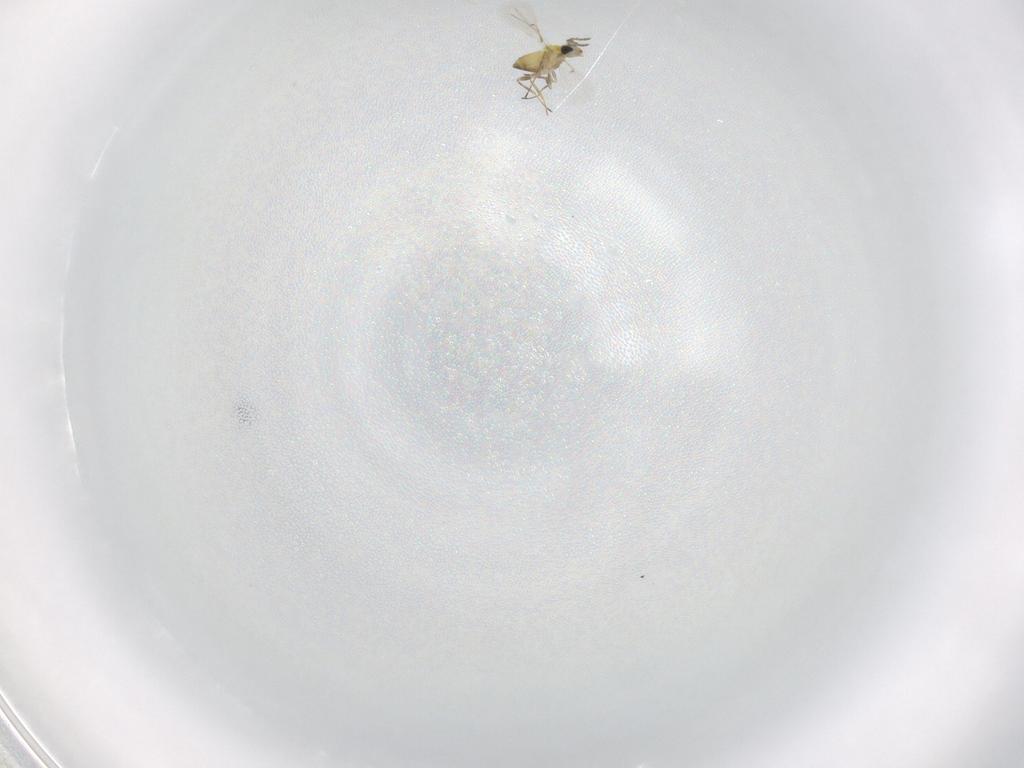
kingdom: Animalia
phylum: Arthropoda
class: Insecta
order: Hymenoptera
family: Trichogrammatidae
